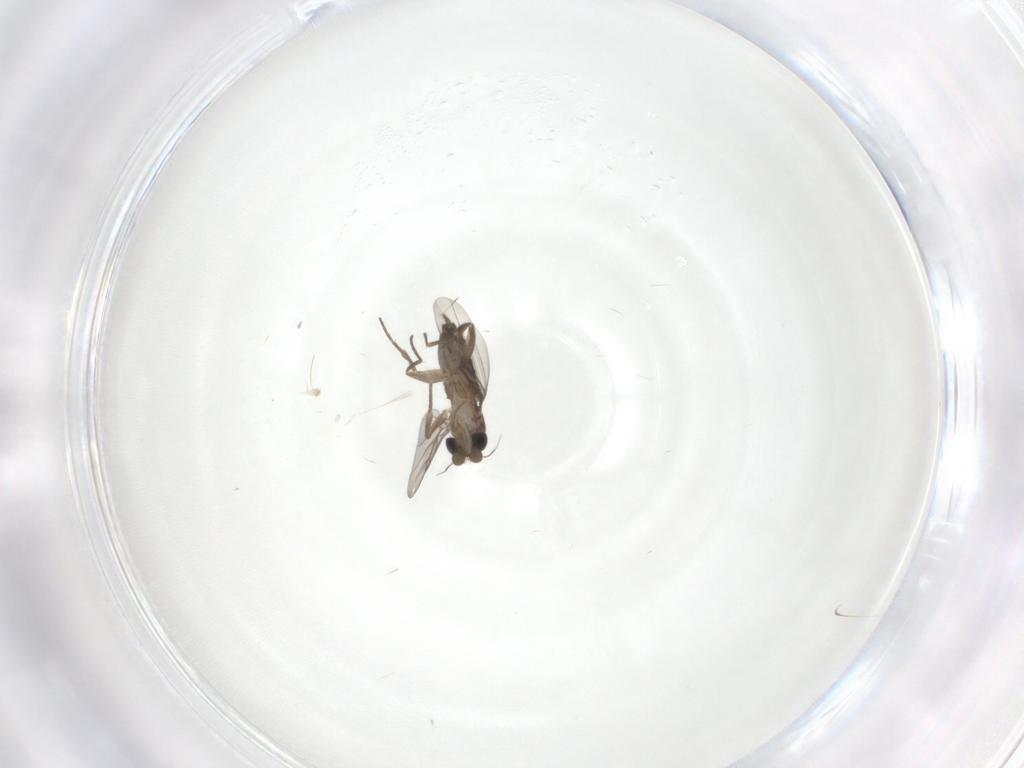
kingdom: Animalia
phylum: Arthropoda
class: Insecta
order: Diptera
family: Phoridae
